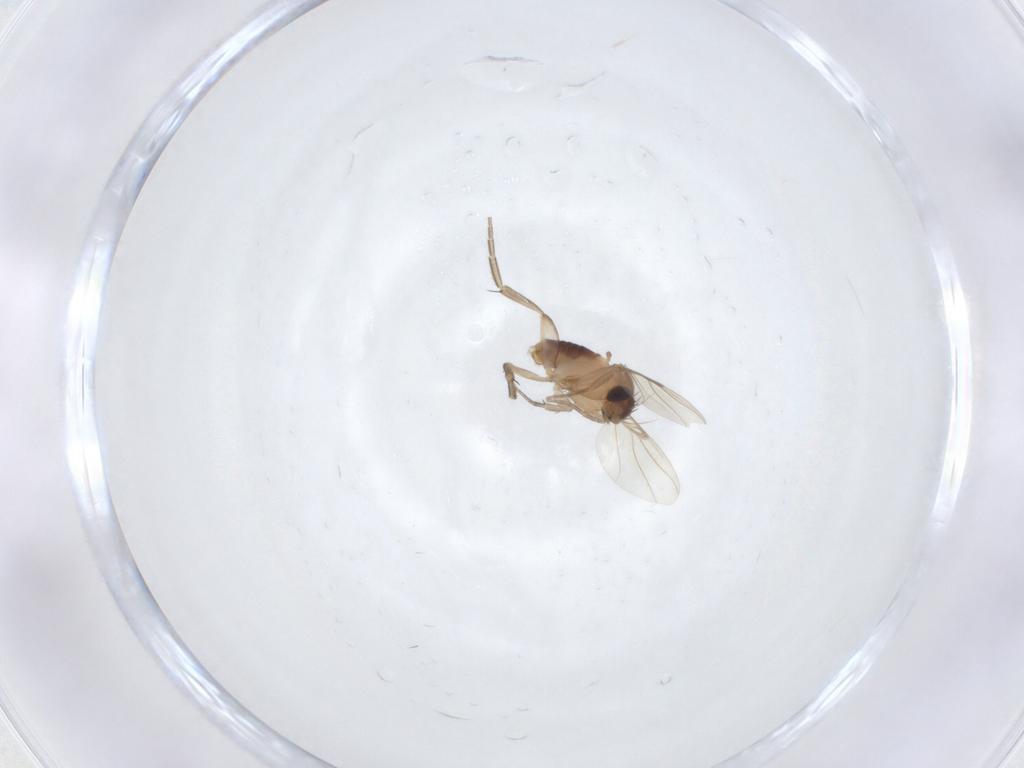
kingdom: Animalia
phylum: Arthropoda
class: Insecta
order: Diptera
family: Phoridae
